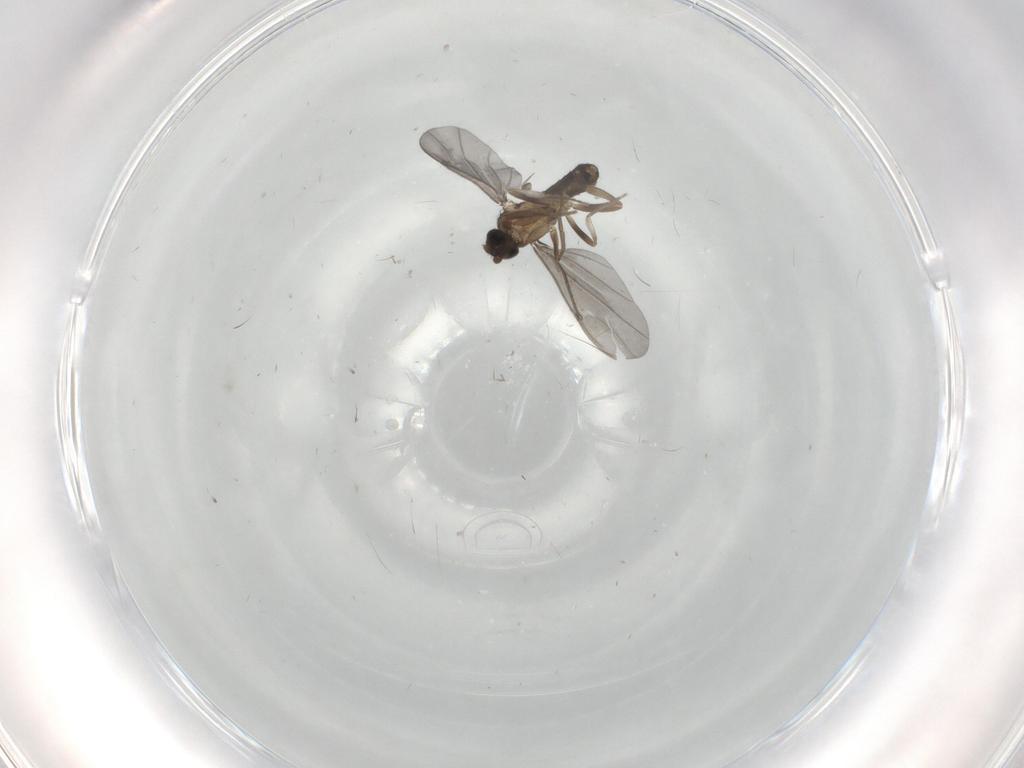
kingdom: Animalia
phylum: Arthropoda
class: Insecta
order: Diptera
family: Phoridae
